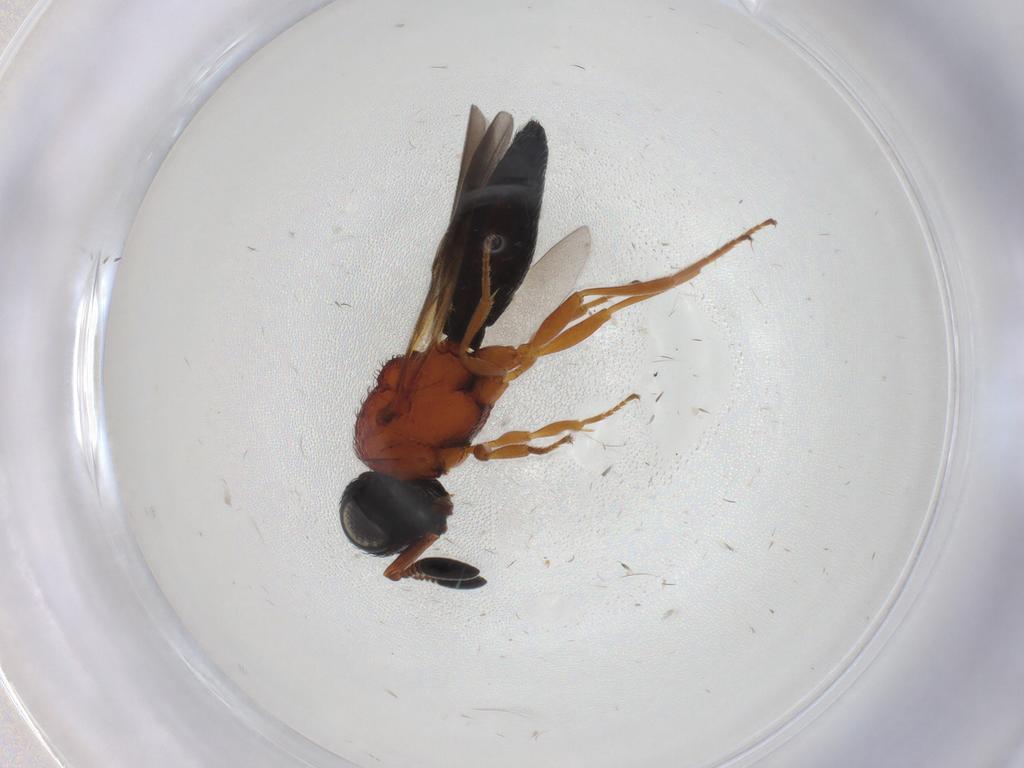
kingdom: Animalia
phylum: Arthropoda
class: Insecta
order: Hymenoptera
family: Scelionidae
